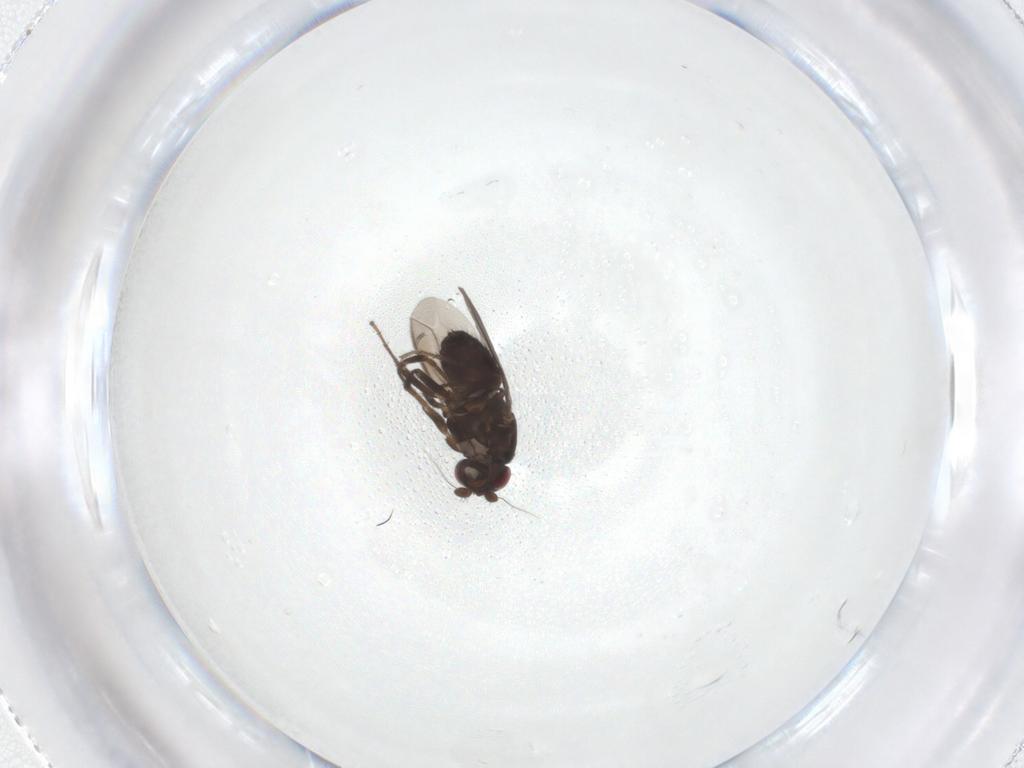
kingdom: Animalia
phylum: Arthropoda
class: Insecta
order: Diptera
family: Sphaeroceridae
